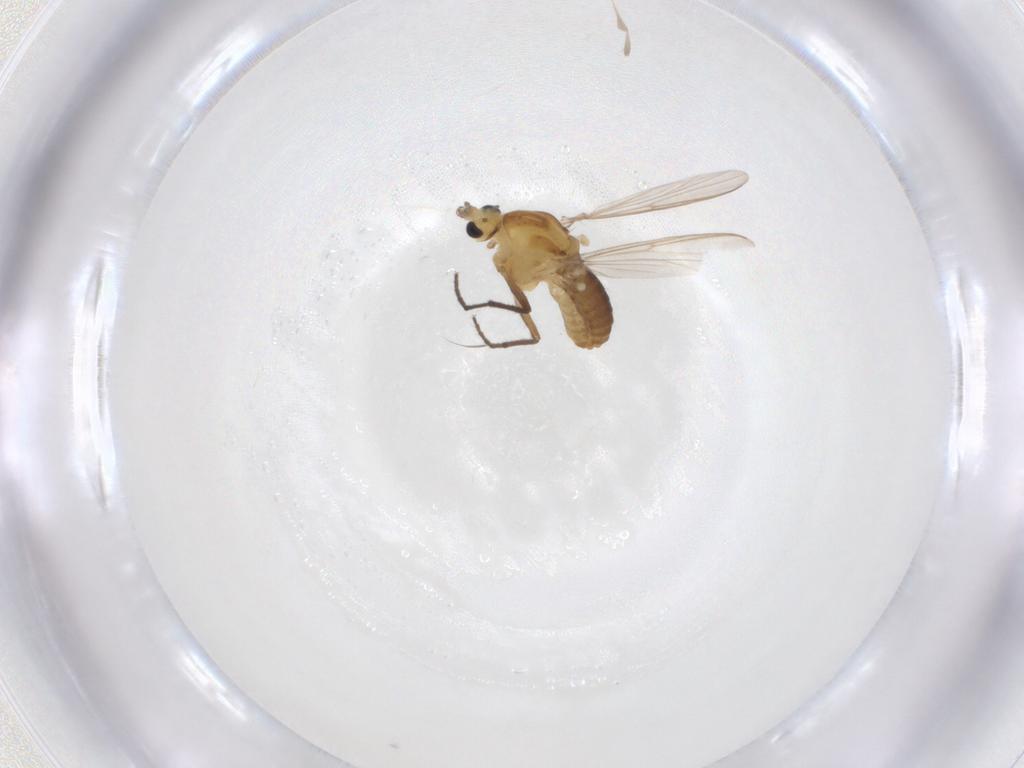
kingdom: Animalia
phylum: Arthropoda
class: Insecta
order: Diptera
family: Chironomidae
